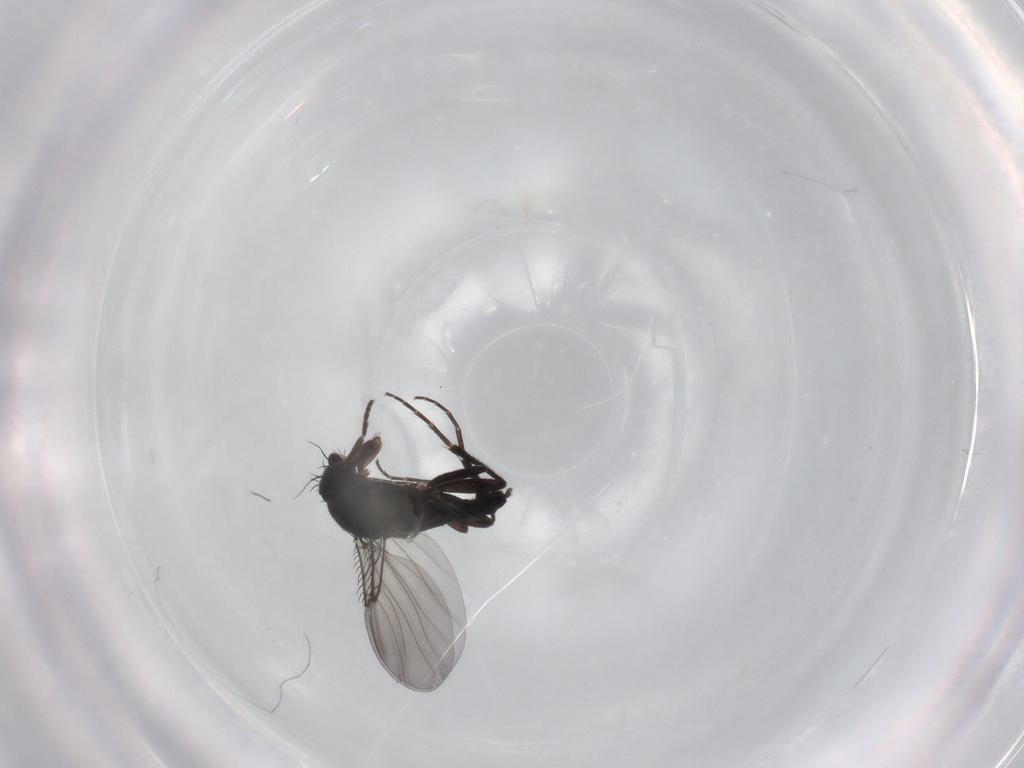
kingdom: Animalia
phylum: Arthropoda
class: Insecta
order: Diptera
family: Phoridae
